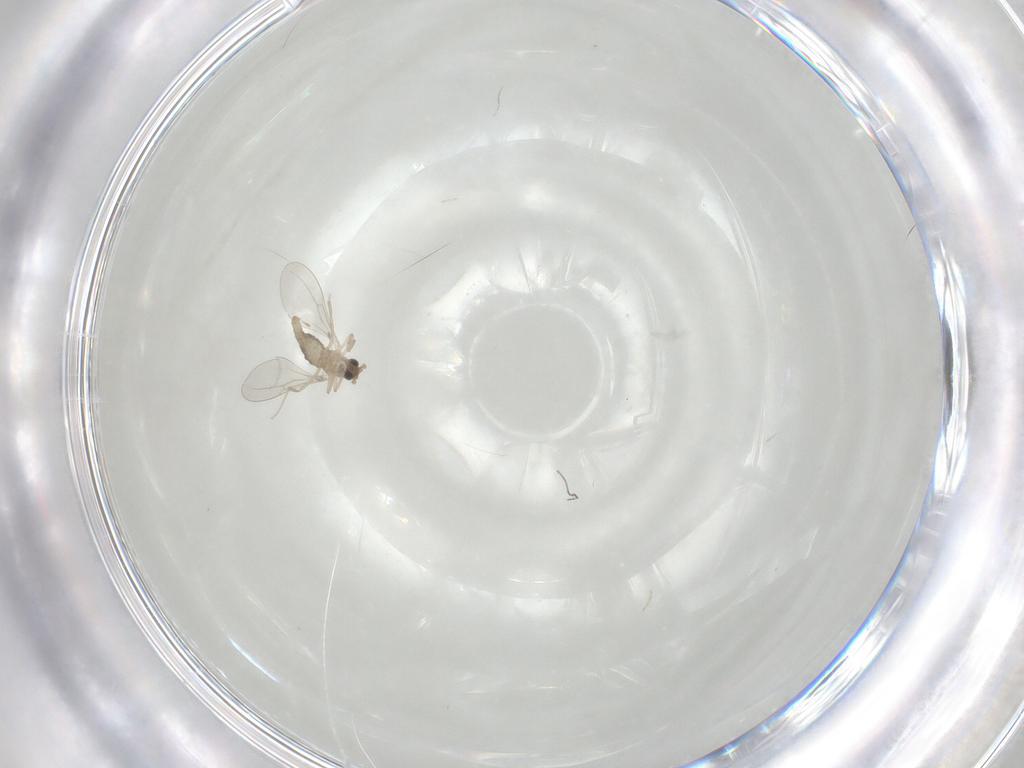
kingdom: Animalia
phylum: Arthropoda
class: Insecta
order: Diptera
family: Cecidomyiidae
